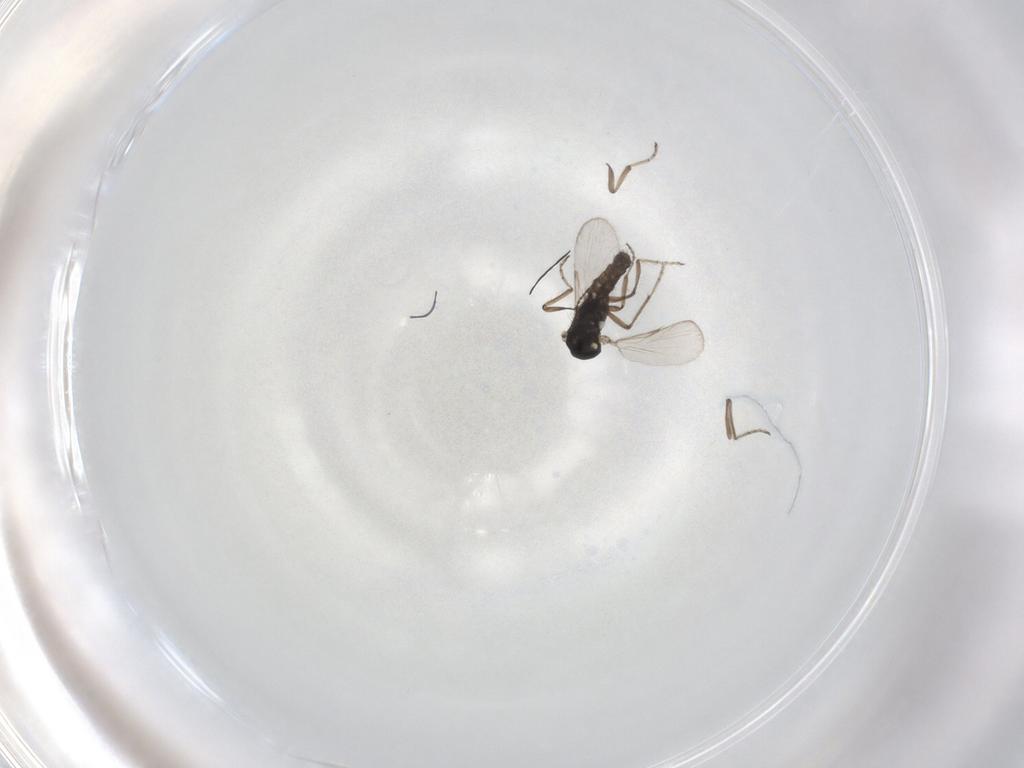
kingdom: Animalia
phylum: Arthropoda
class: Insecta
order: Diptera
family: Ceratopogonidae
